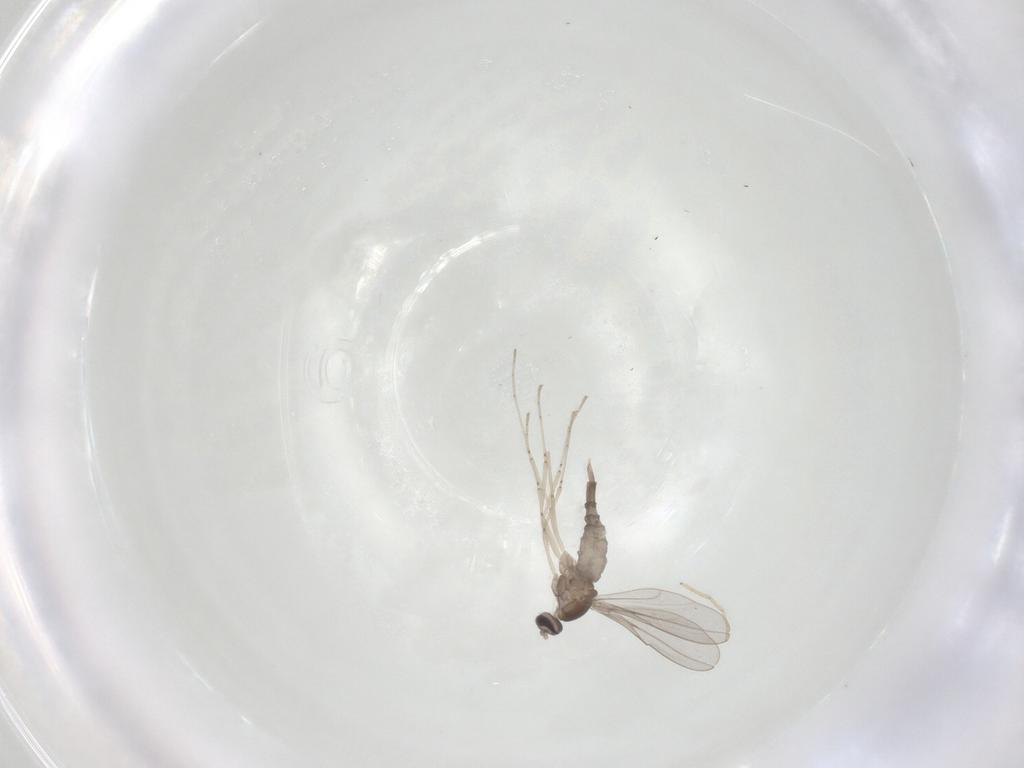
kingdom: Animalia
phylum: Arthropoda
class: Insecta
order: Diptera
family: Cecidomyiidae
